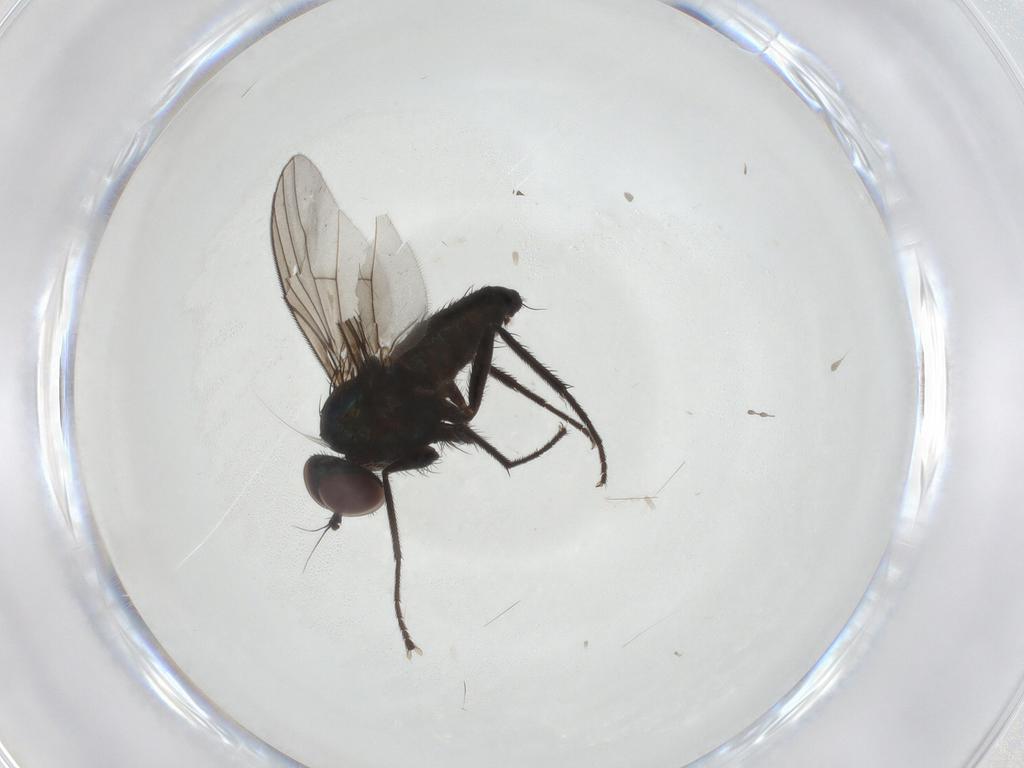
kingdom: Animalia
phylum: Arthropoda
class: Insecta
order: Diptera
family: Dolichopodidae
